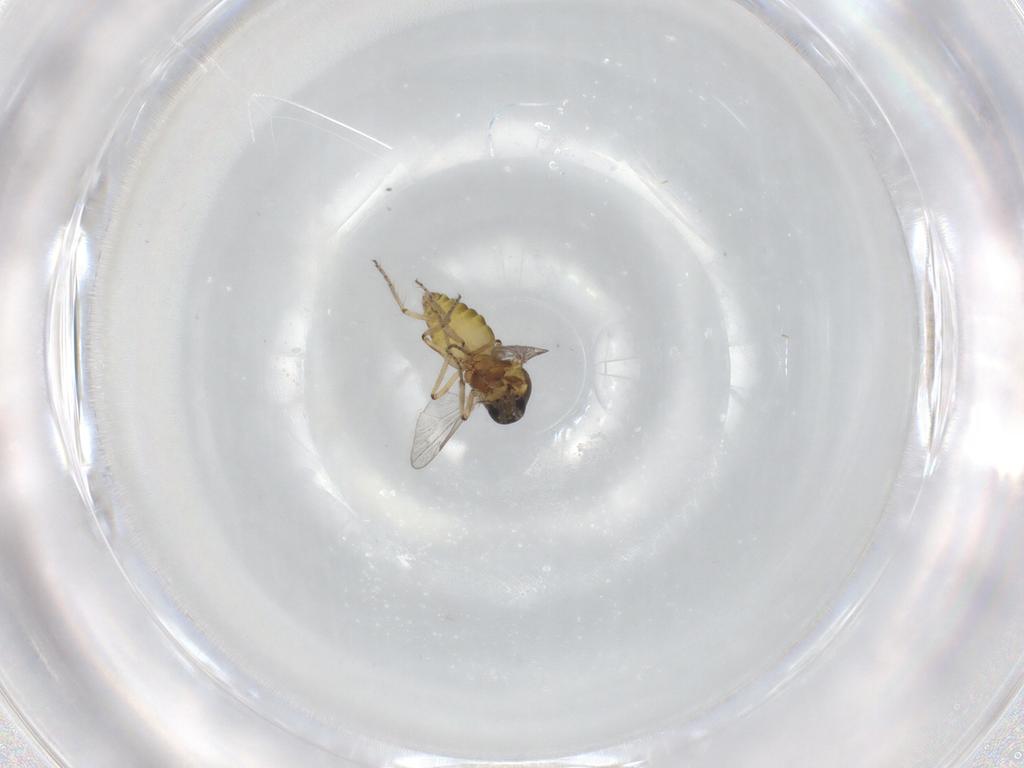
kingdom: Animalia
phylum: Arthropoda
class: Insecta
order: Diptera
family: Ceratopogonidae
